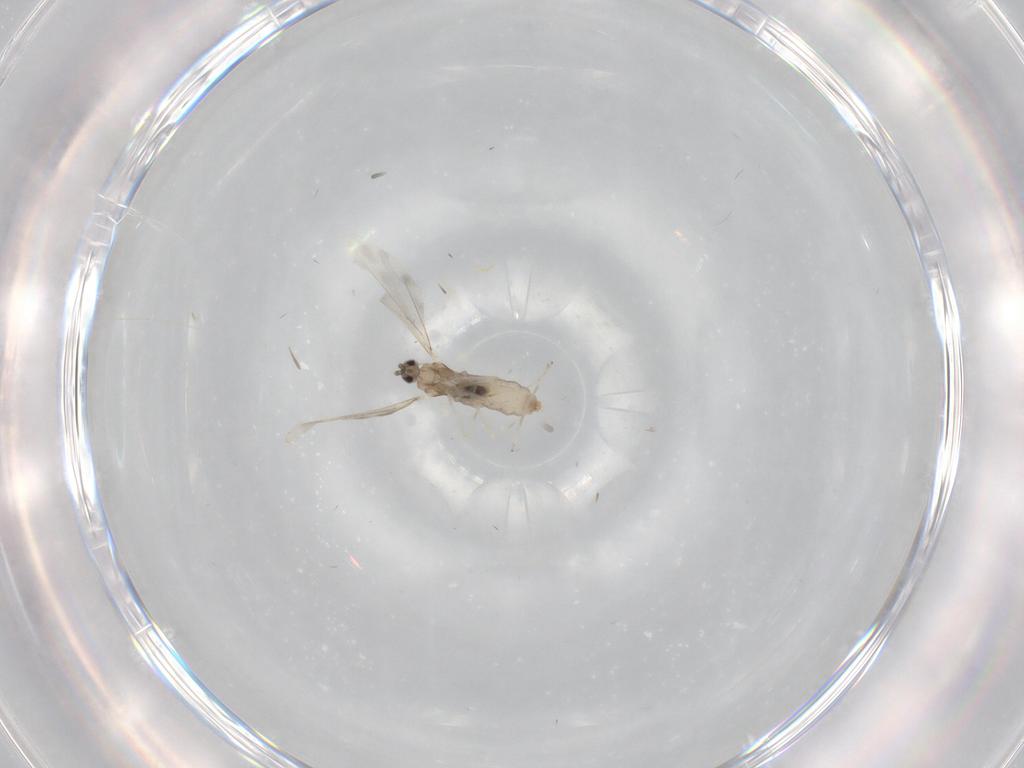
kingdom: Animalia
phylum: Arthropoda
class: Insecta
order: Diptera
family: Cecidomyiidae
